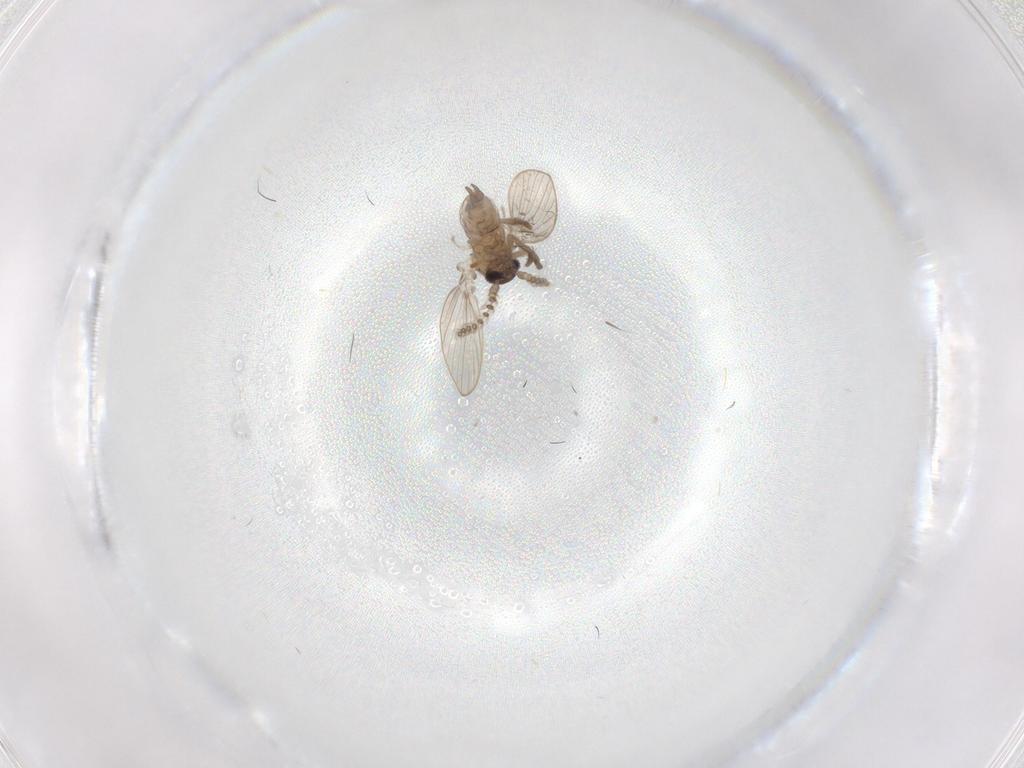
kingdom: Animalia
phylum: Arthropoda
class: Insecta
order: Diptera
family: Psychodidae
